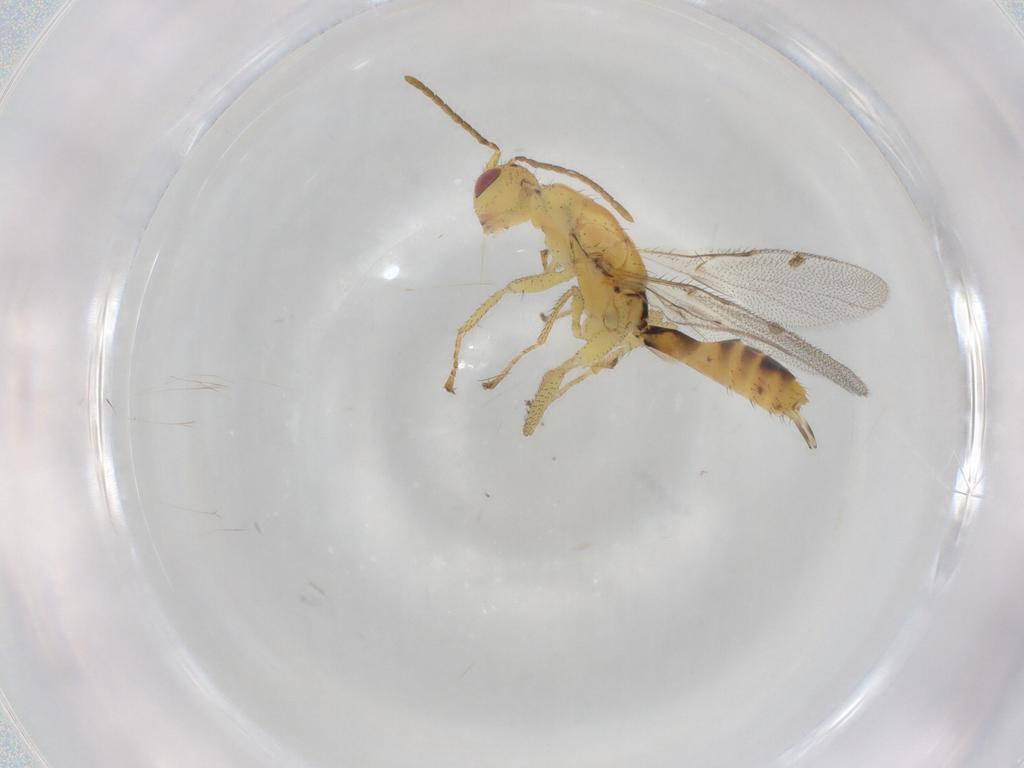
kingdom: Animalia
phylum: Arthropoda
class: Insecta
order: Hymenoptera
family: Megastigmidae
